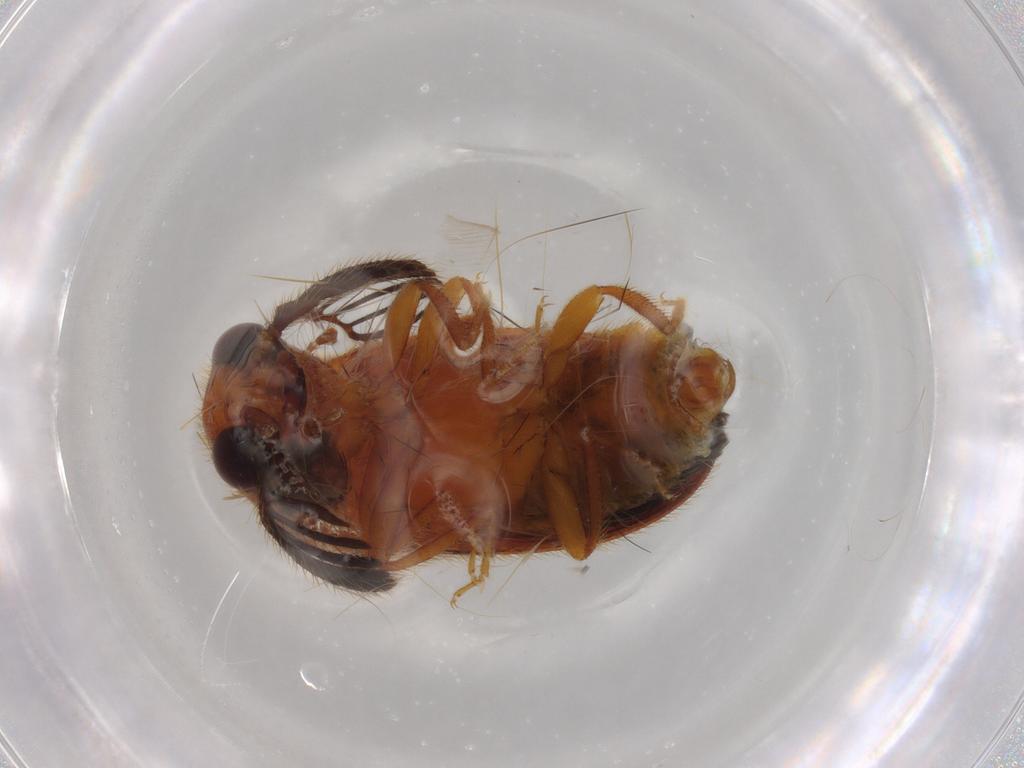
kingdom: Animalia
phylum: Arthropoda
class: Insecta
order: Coleoptera
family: Elateridae
